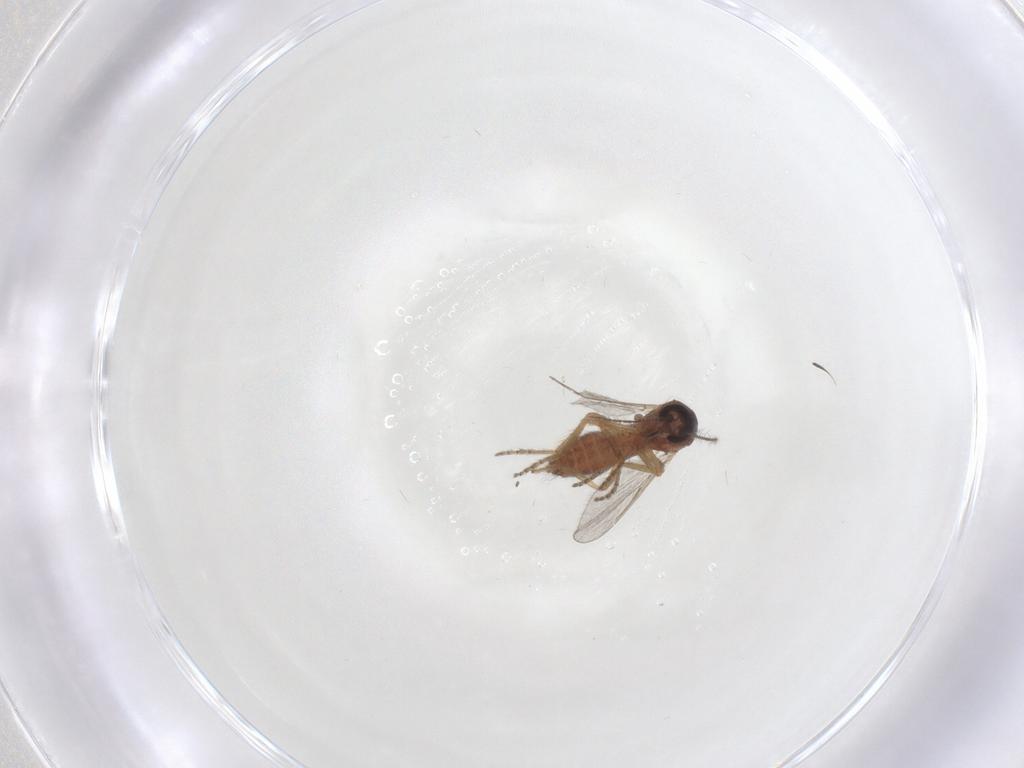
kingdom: Animalia
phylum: Arthropoda
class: Insecta
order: Diptera
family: Ceratopogonidae
